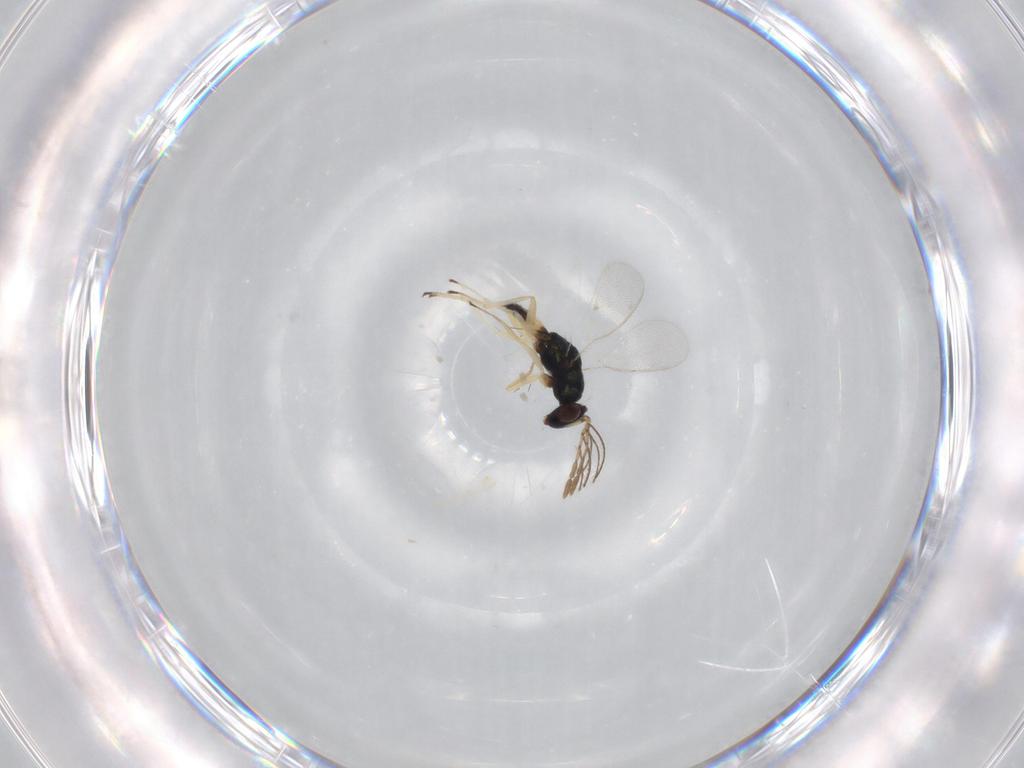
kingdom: Animalia
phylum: Arthropoda
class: Insecta
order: Hymenoptera
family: Eulophidae
